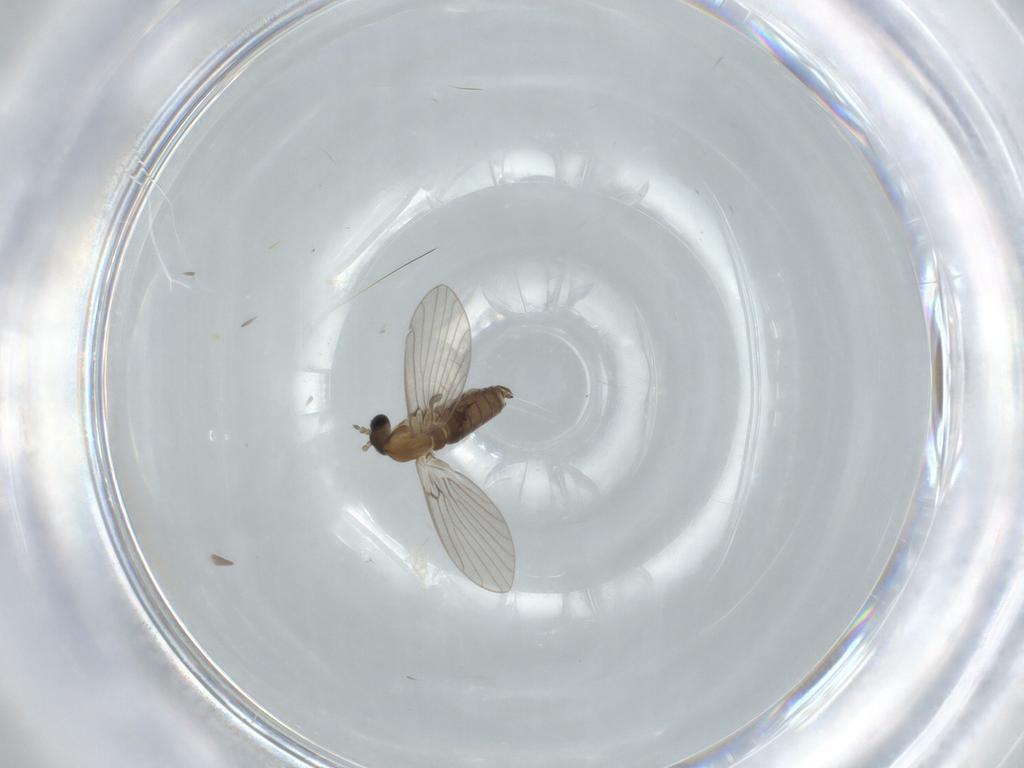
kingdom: Animalia
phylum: Arthropoda
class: Insecta
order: Diptera
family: Psychodidae
